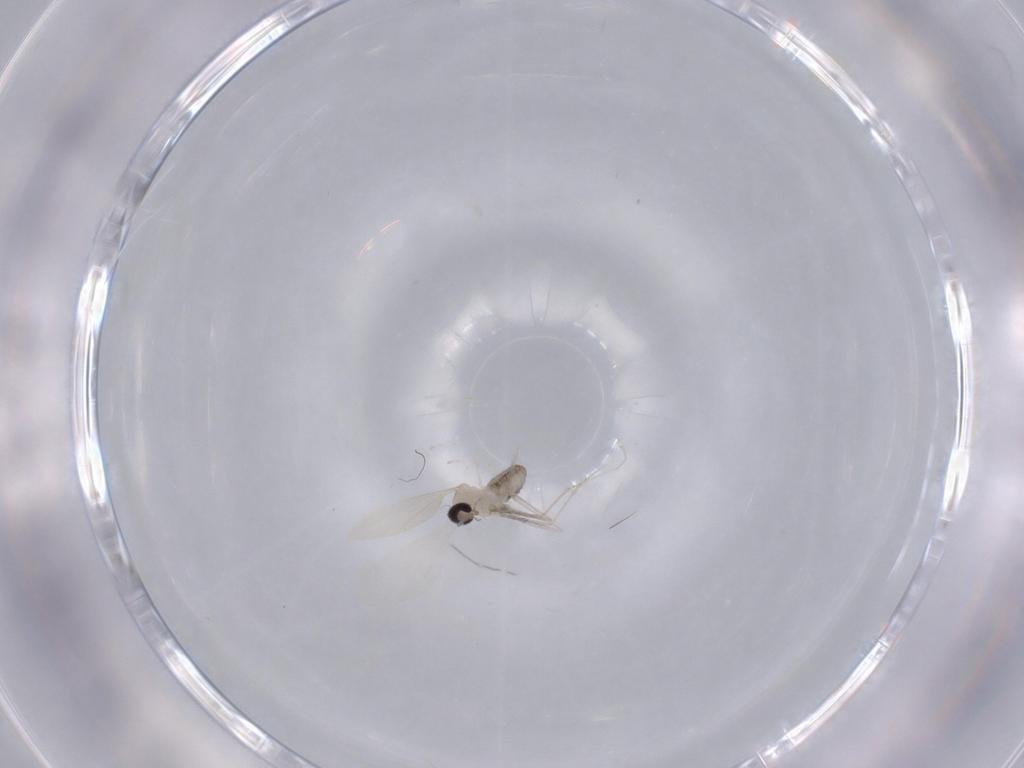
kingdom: Animalia
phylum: Arthropoda
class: Insecta
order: Diptera
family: Cecidomyiidae
